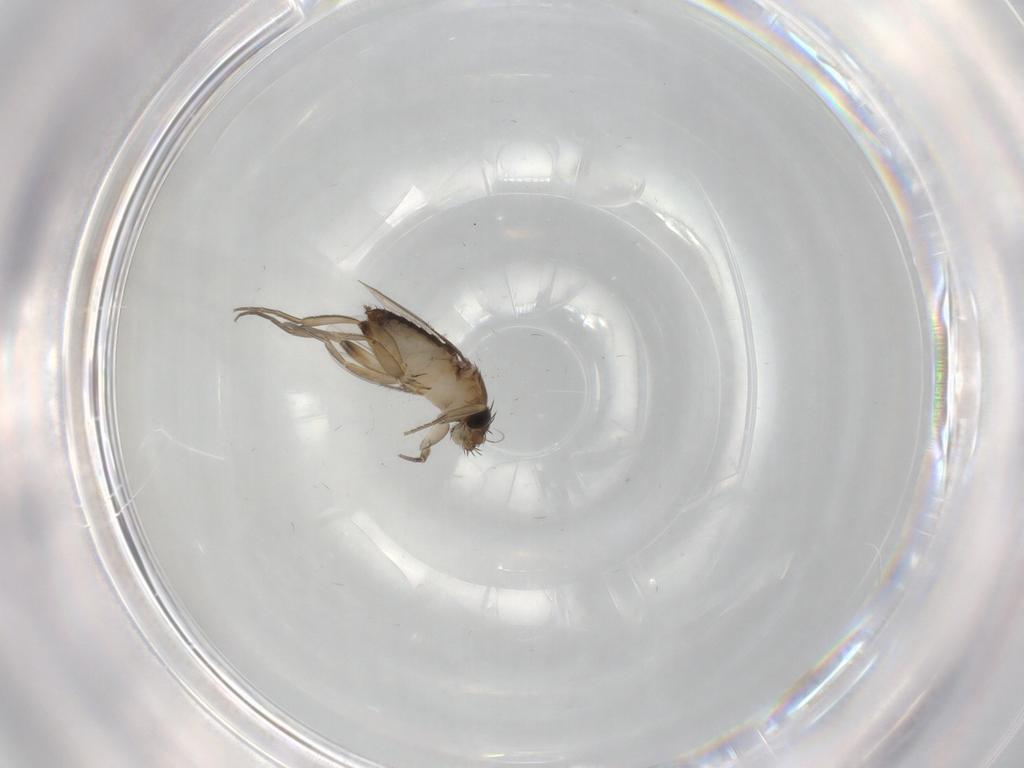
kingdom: Animalia
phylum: Arthropoda
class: Insecta
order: Diptera
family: Phoridae
